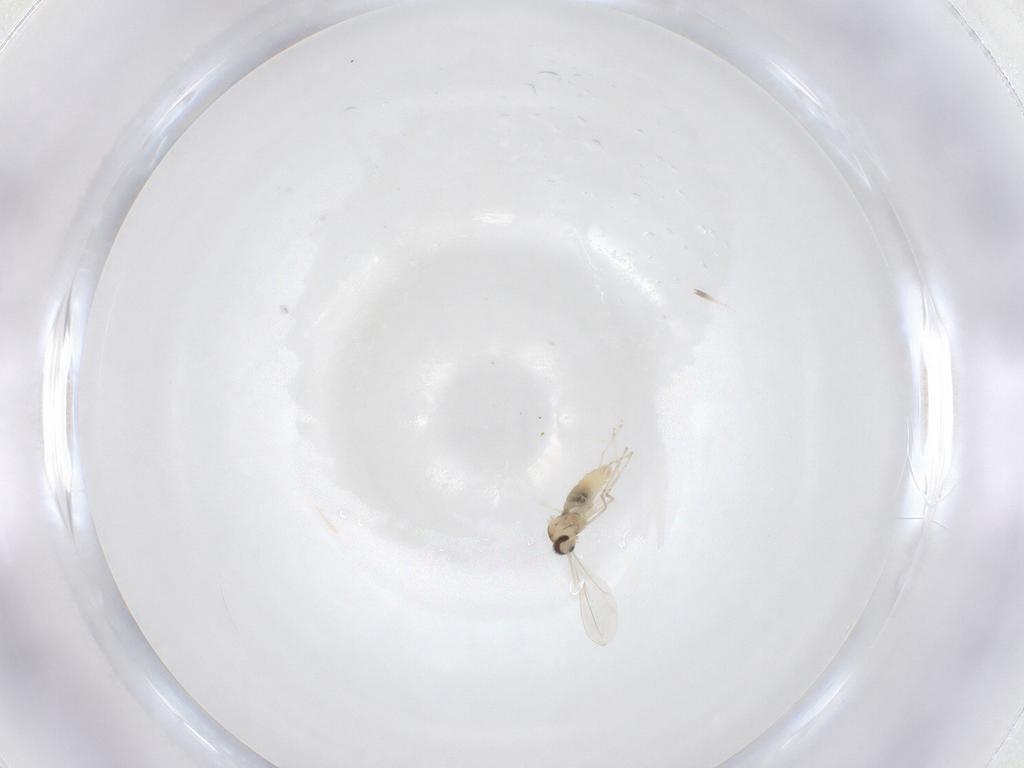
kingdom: Animalia
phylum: Arthropoda
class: Insecta
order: Diptera
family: Cecidomyiidae
